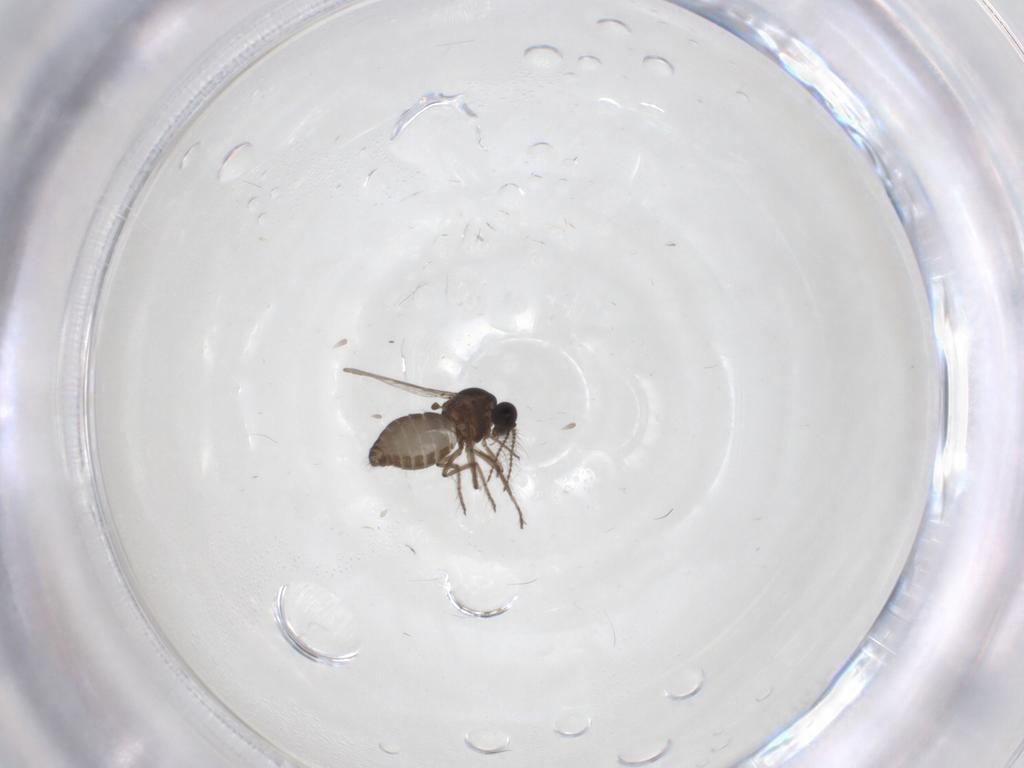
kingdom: Animalia
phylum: Arthropoda
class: Insecta
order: Diptera
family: Ceratopogonidae
